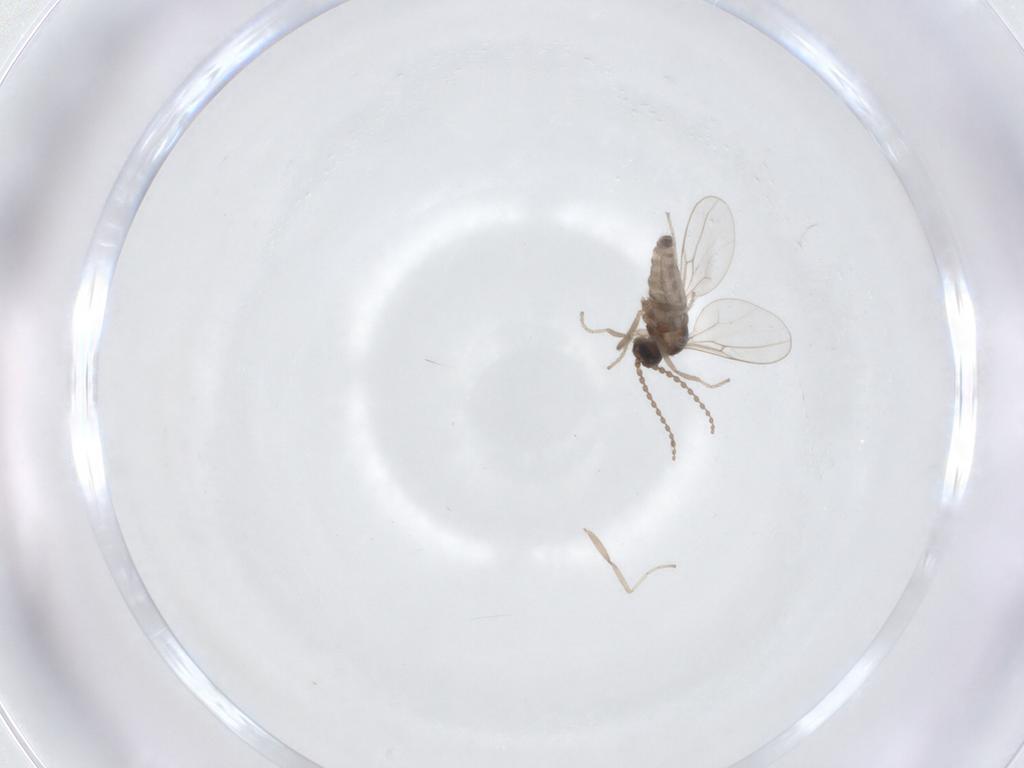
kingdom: Animalia
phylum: Arthropoda
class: Insecta
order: Diptera
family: Cecidomyiidae
